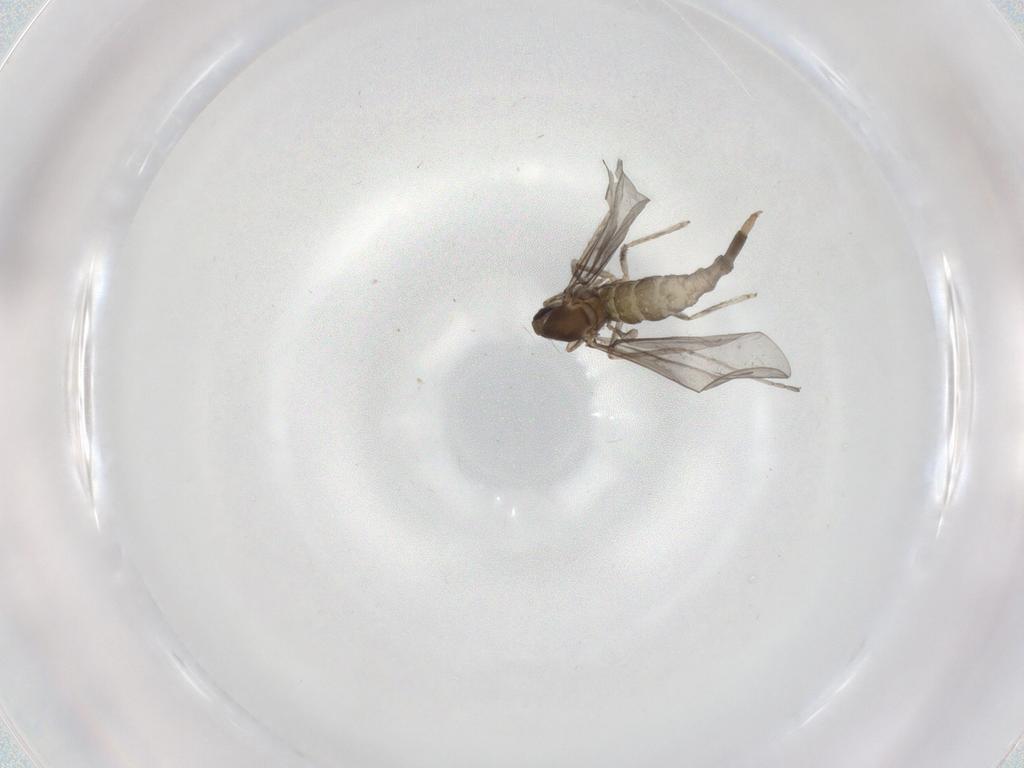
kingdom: Animalia
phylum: Arthropoda
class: Insecta
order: Diptera
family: Cecidomyiidae
